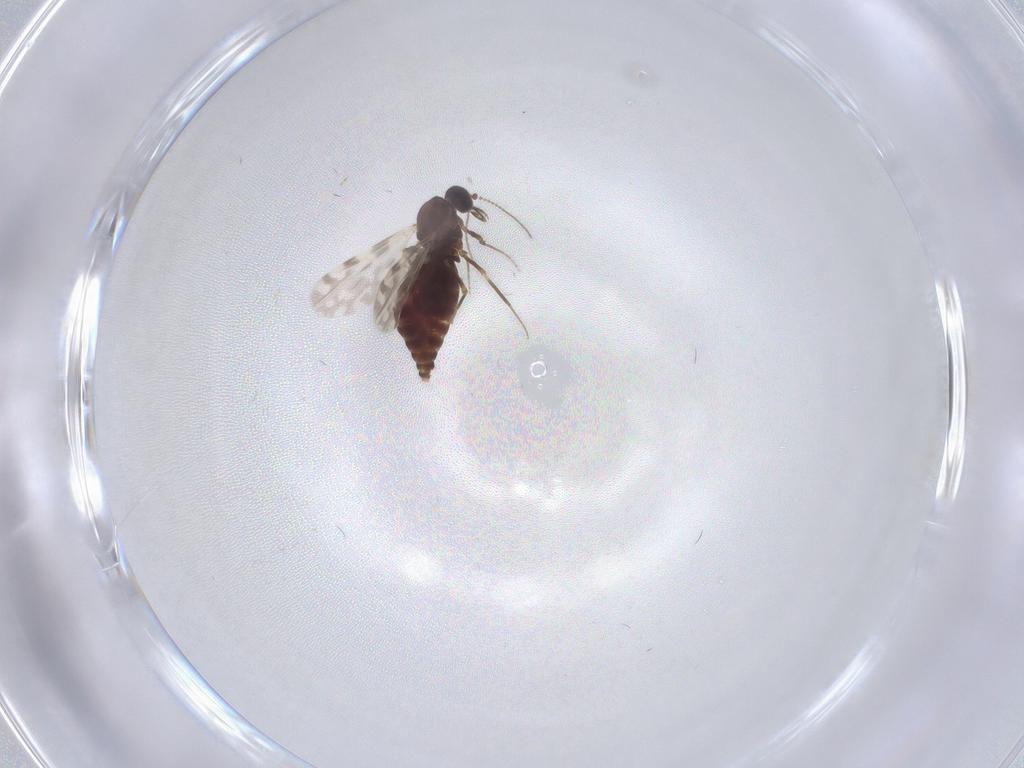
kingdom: Animalia
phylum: Arthropoda
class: Insecta
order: Diptera
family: Ceratopogonidae
